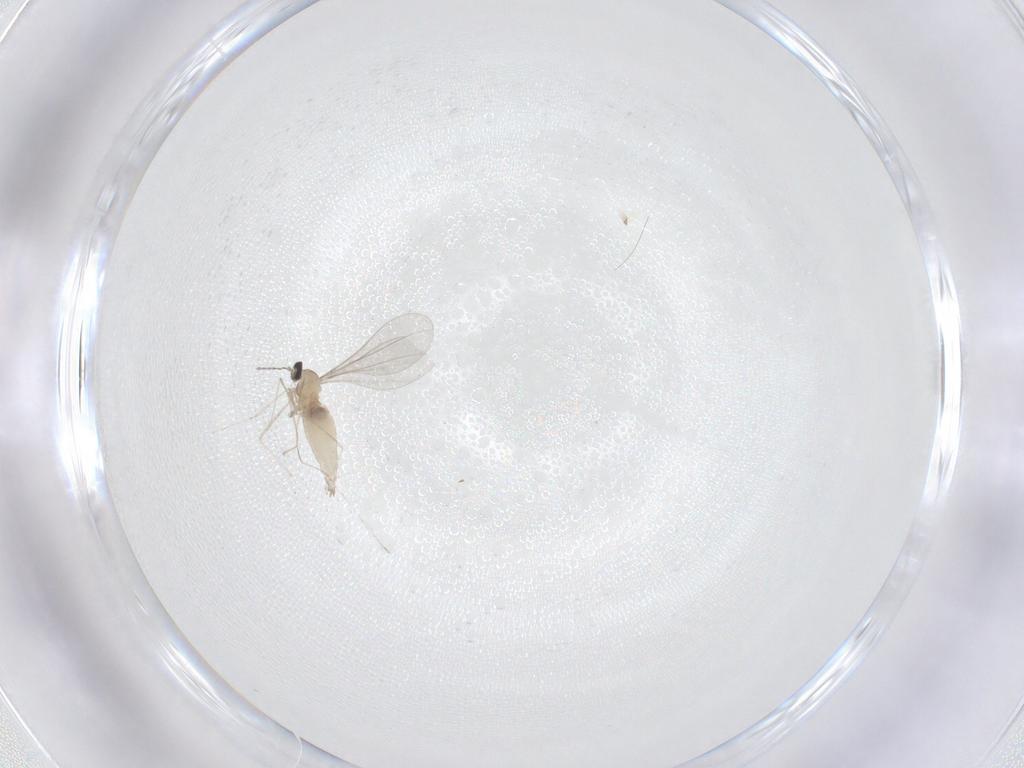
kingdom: Animalia
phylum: Arthropoda
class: Insecta
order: Diptera
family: Cecidomyiidae
